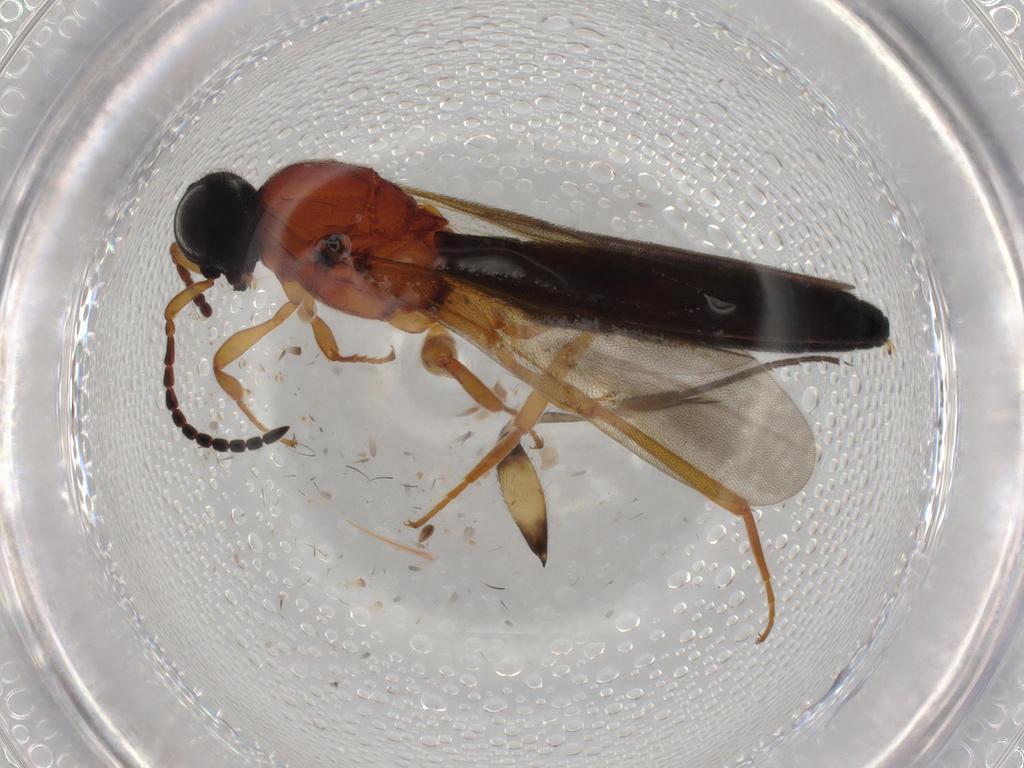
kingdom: Animalia
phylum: Arthropoda
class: Insecta
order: Hymenoptera
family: Scelionidae
